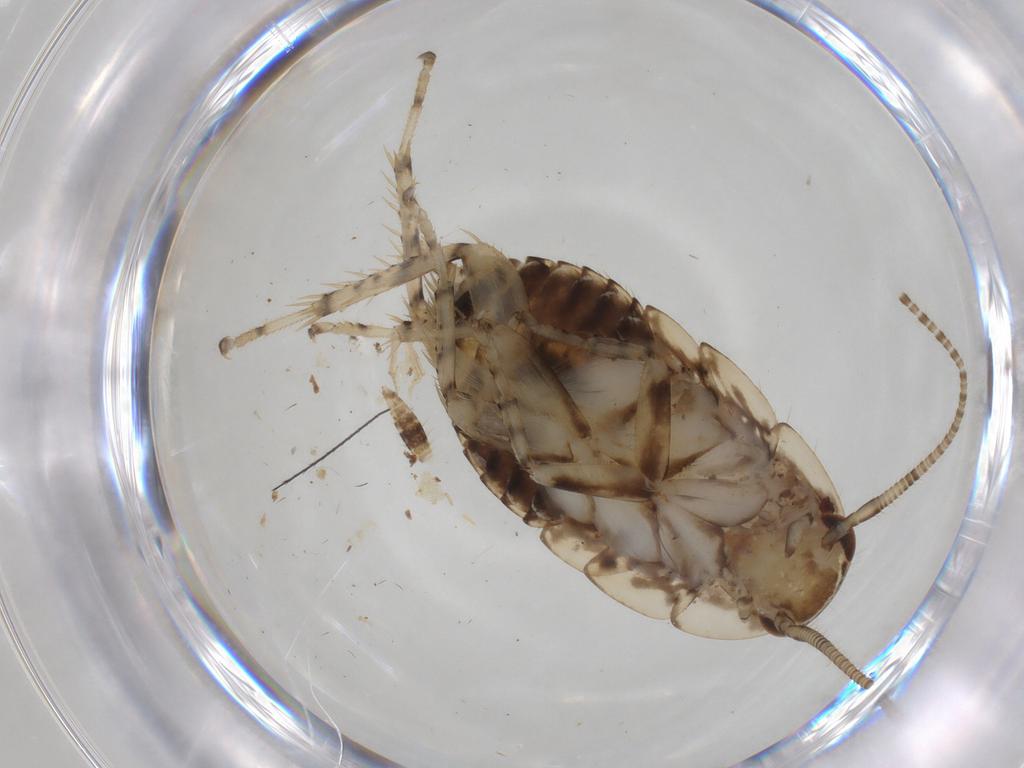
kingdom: Animalia
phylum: Arthropoda
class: Insecta
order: Blattodea
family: Ectobiidae
